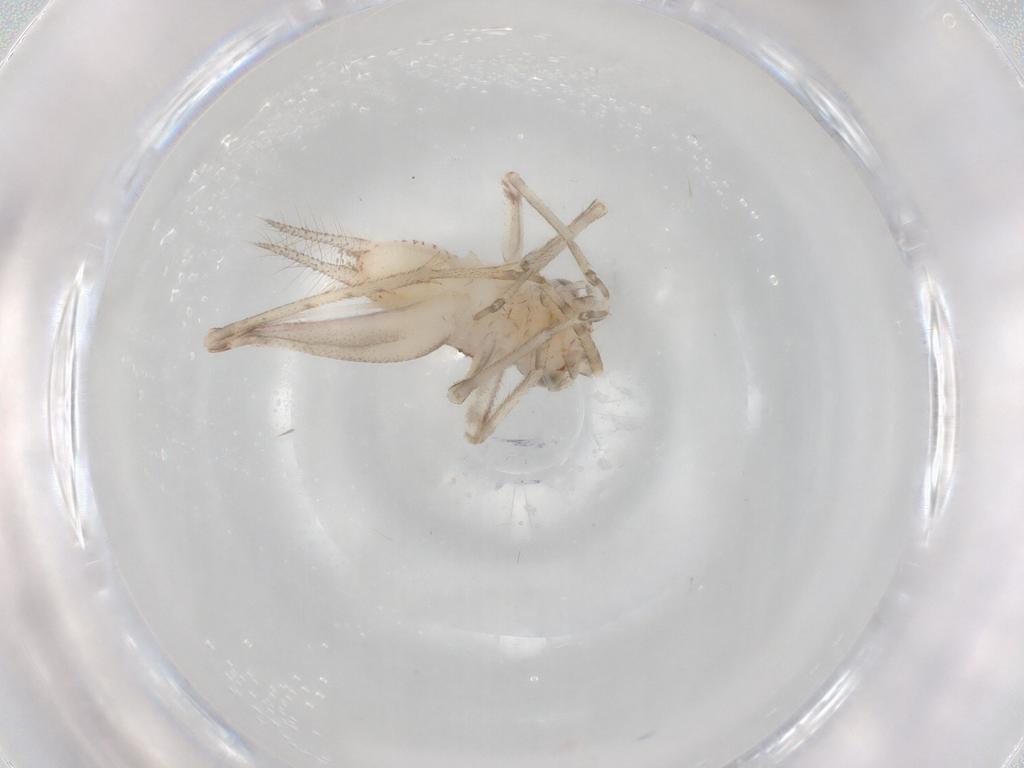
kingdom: Animalia
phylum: Arthropoda
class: Insecta
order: Orthoptera
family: Trigonidiidae
